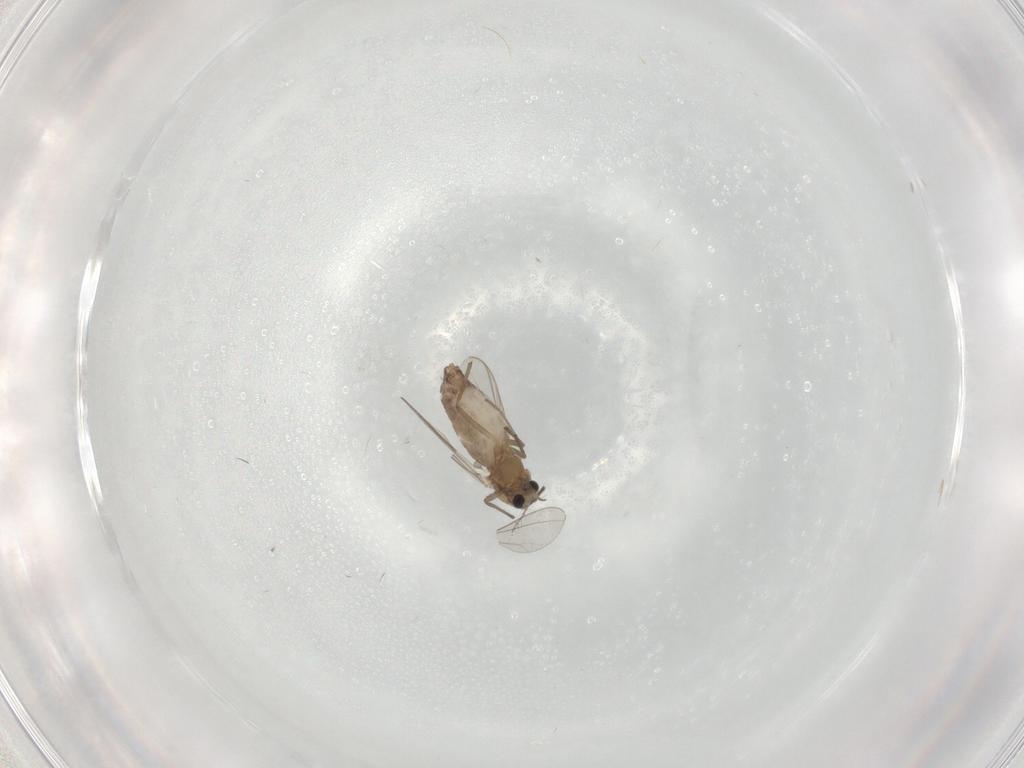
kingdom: Animalia
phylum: Arthropoda
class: Insecta
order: Diptera
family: Chironomidae
